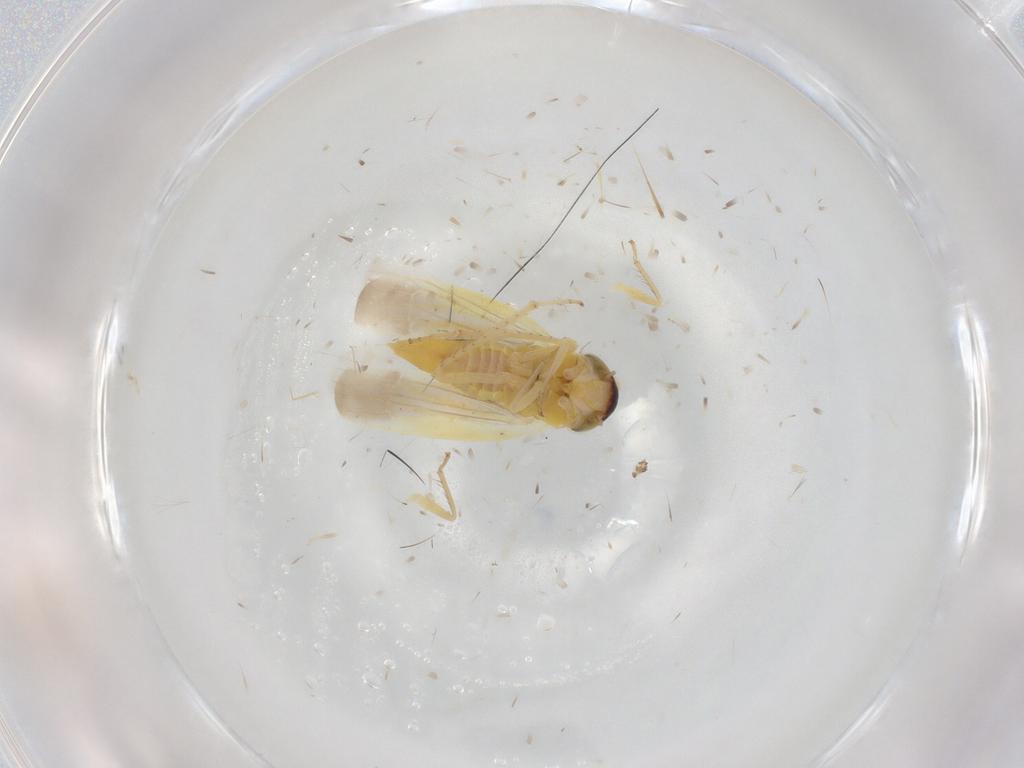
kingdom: Animalia
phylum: Arthropoda
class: Insecta
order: Hemiptera
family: Cicadellidae
